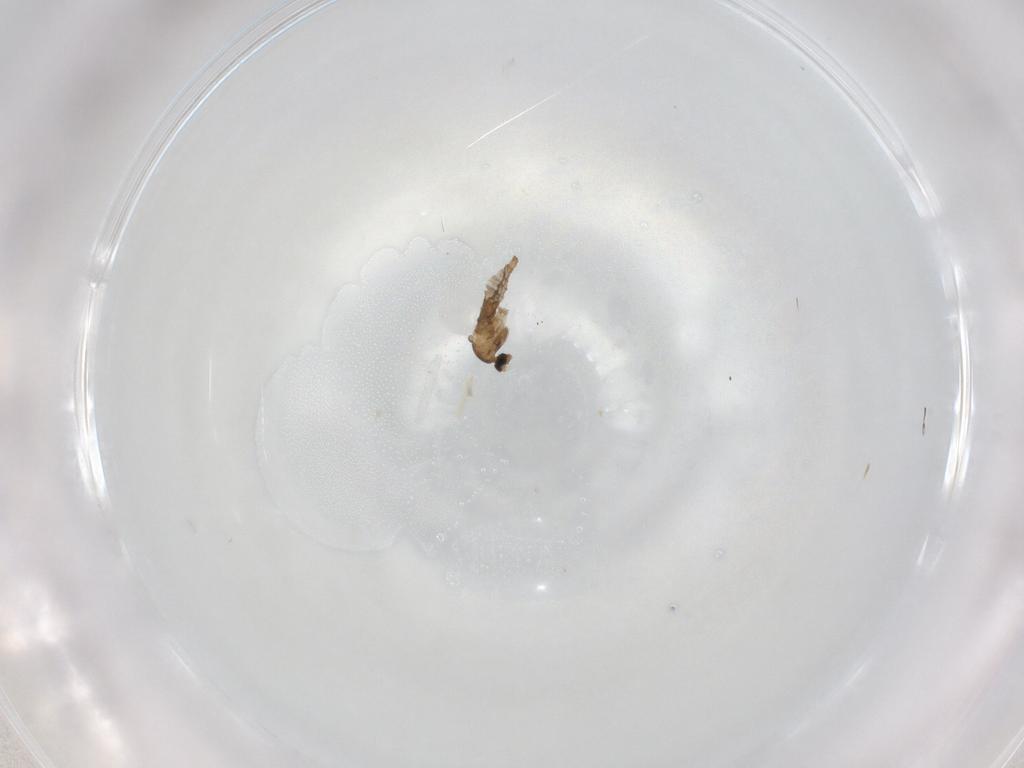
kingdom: Animalia
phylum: Arthropoda
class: Insecta
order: Diptera
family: Cecidomyiidae
